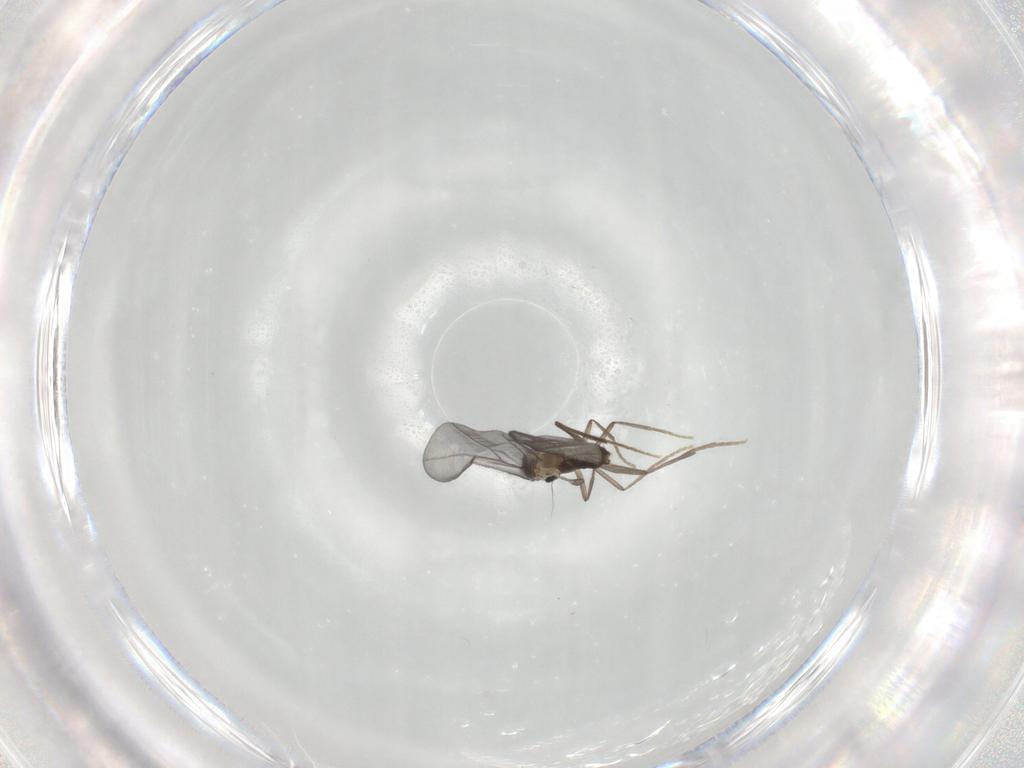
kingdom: Animalia
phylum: Arthropoda
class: Insecta
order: Diptera
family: Phoridae
